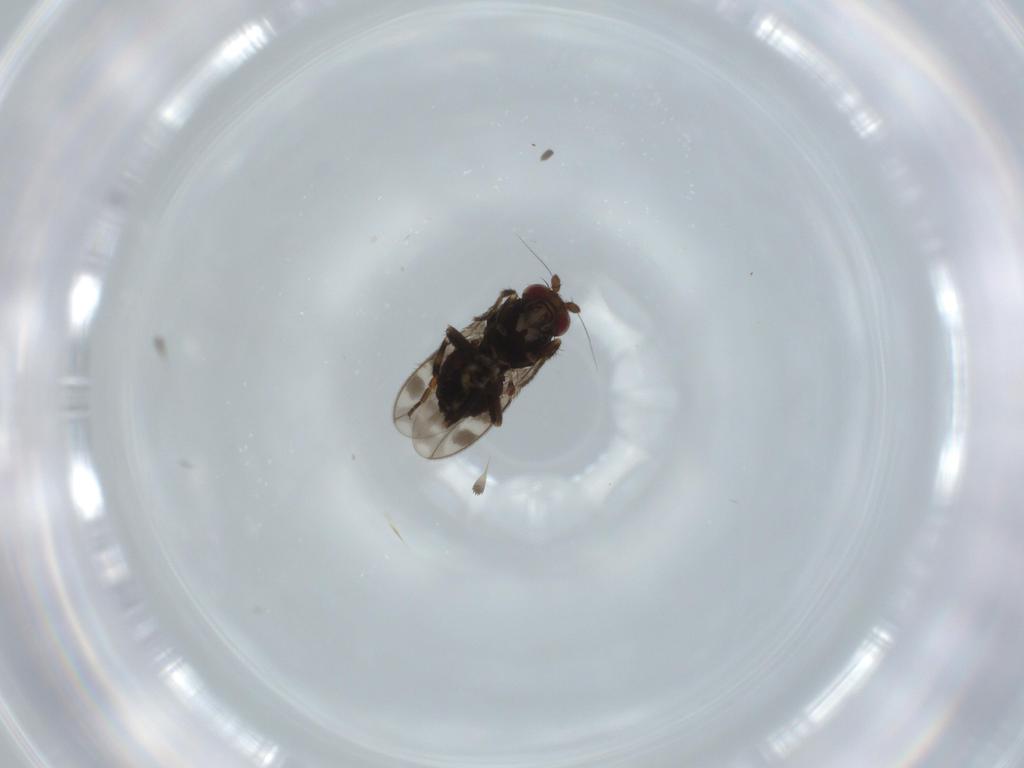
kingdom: Animalia
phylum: Arthropoda
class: Insecta
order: Diptera
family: Sphaeroceridae
